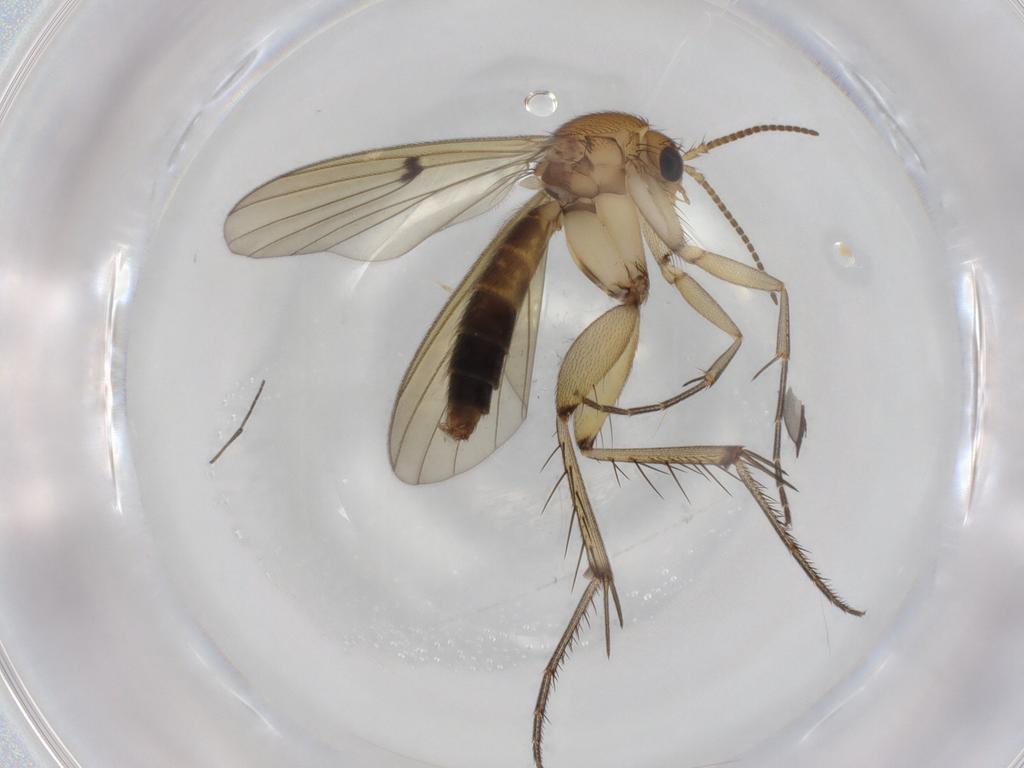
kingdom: Animalia
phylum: Arthropoda
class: Insecta
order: Diptera
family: Mycetophilidae
